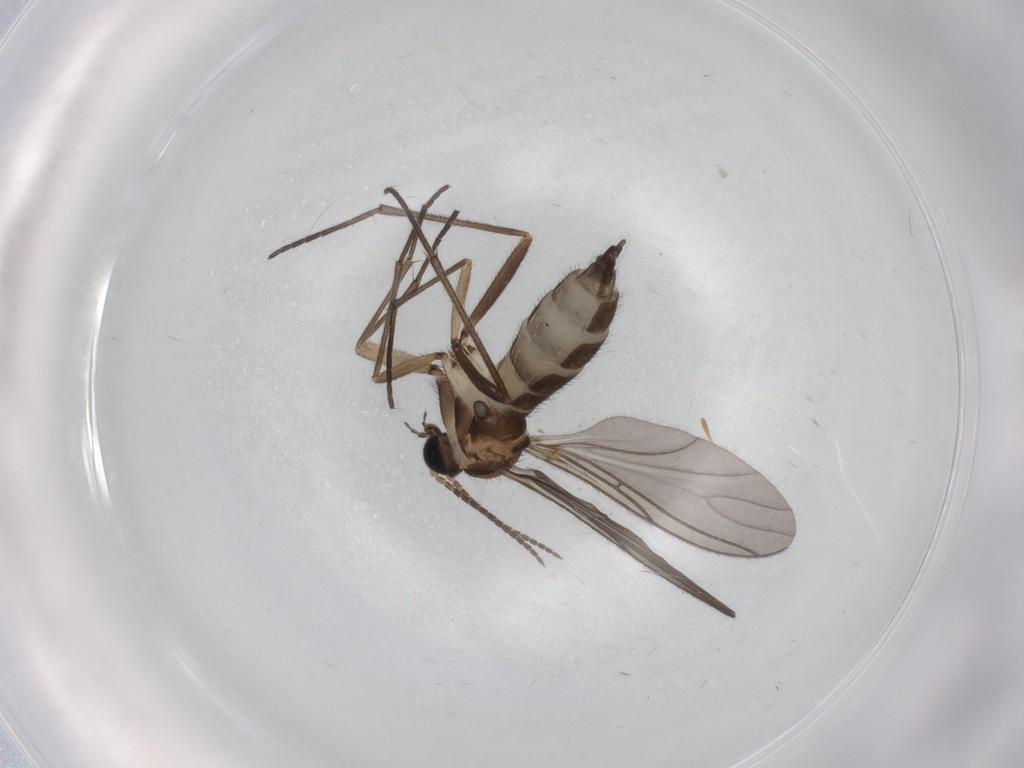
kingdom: Animalia
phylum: Arthropoda
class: Insecta
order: Diptera
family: Sciaridae
